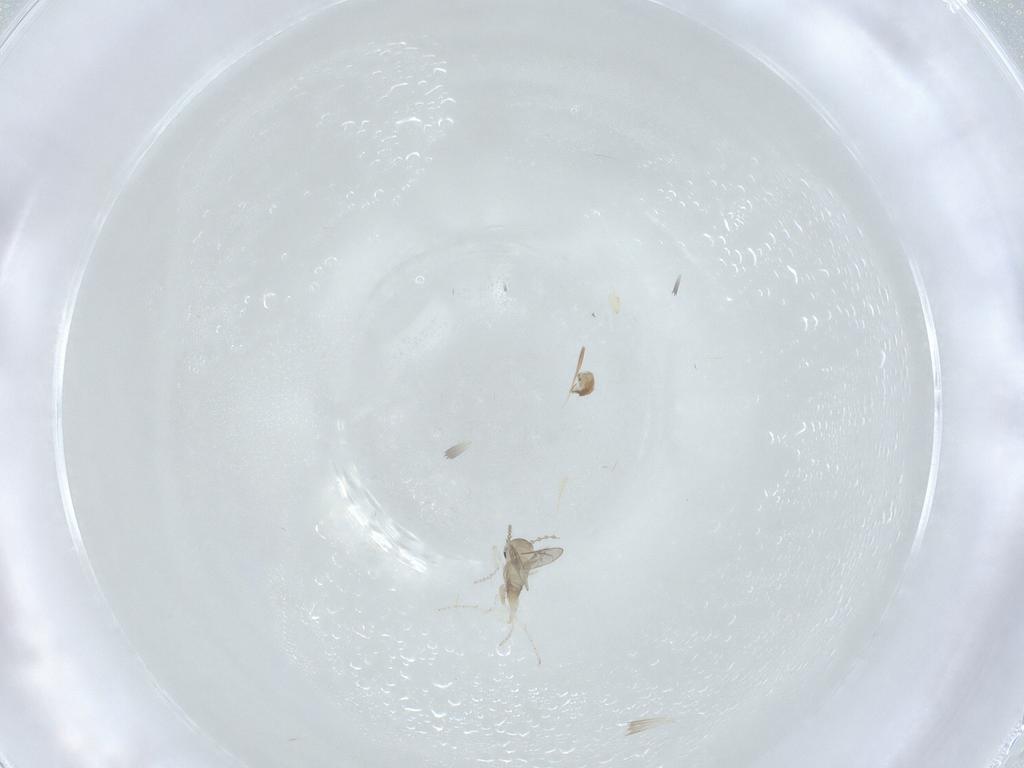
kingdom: Animalia
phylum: Arthropoda
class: Insecta
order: Diptera
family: Cecidomyiidae
